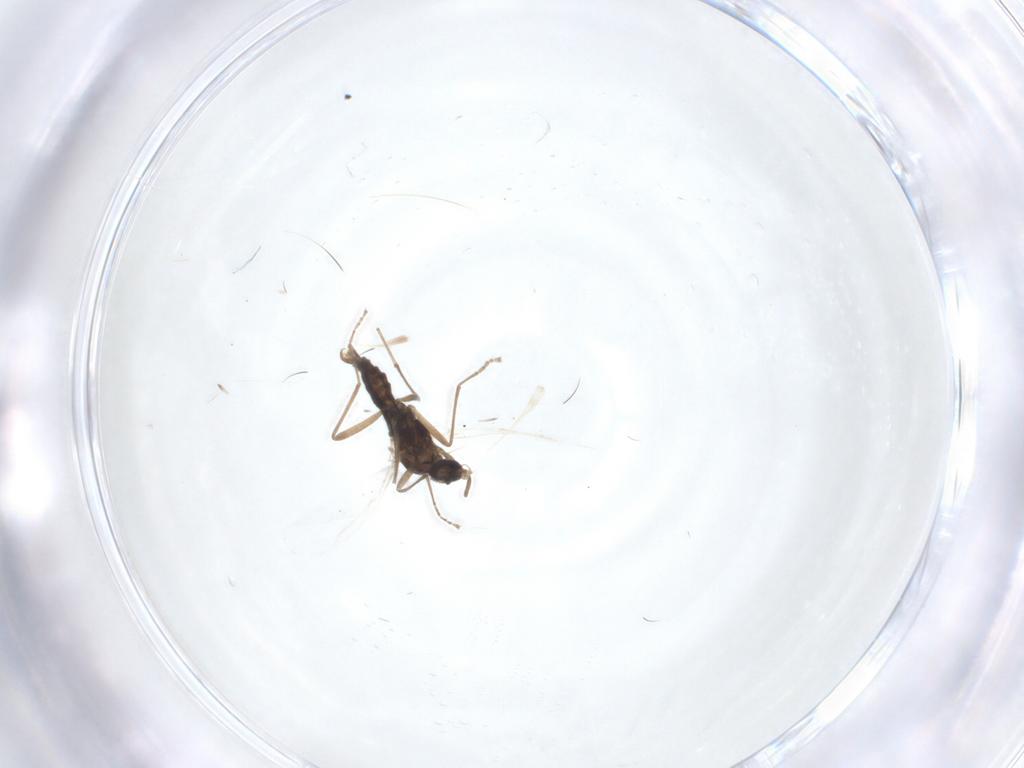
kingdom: Animalia
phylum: Arthropoda
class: Insecta
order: Diptera
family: Cecidomyiidae
